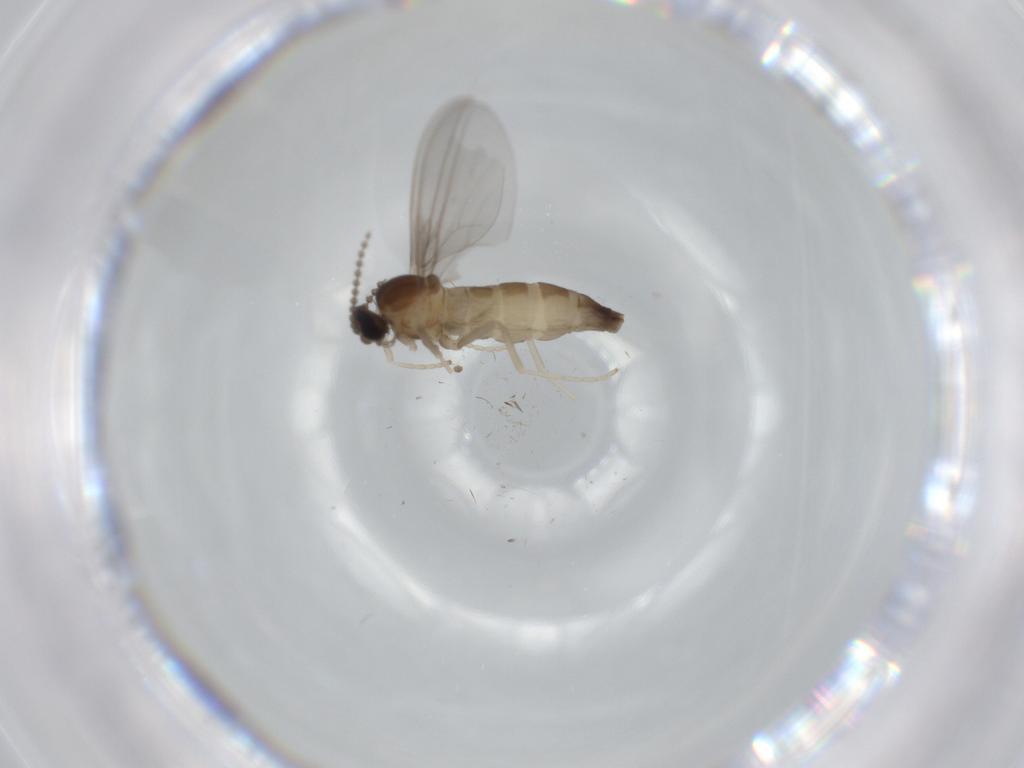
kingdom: Animalia
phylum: Arthropoda
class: Insecta
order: Diptera
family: Cecidomyiidae
